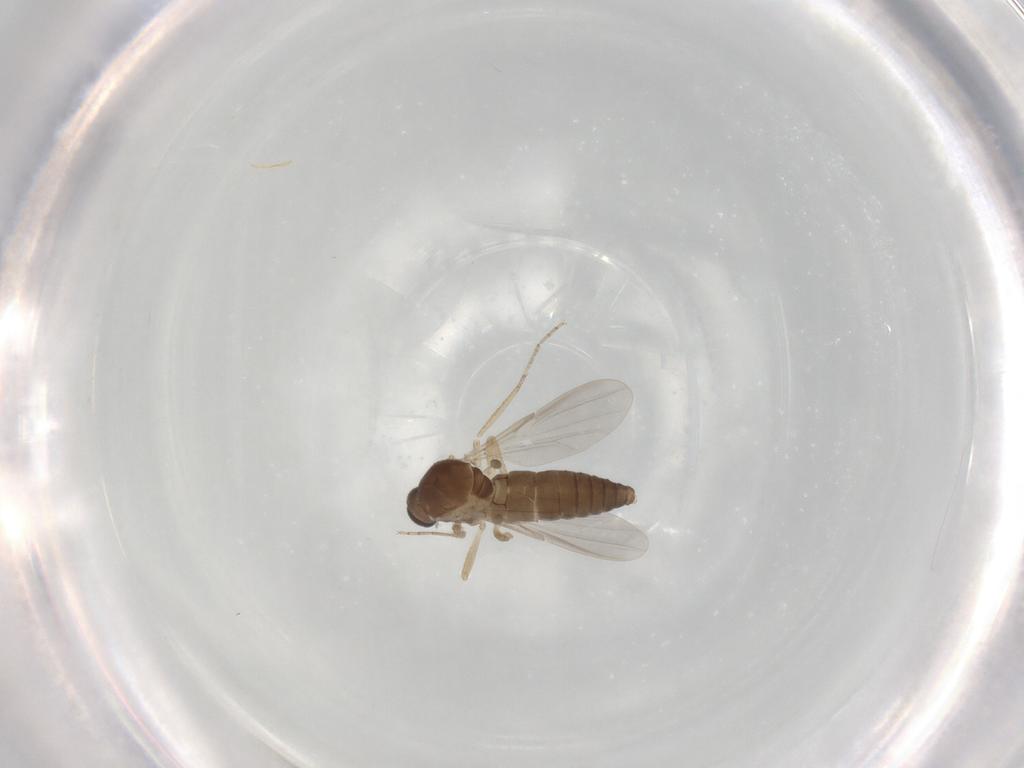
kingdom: Animalia
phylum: Arthropoda
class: Insecta
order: Diptera
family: Ceratopogonidae
